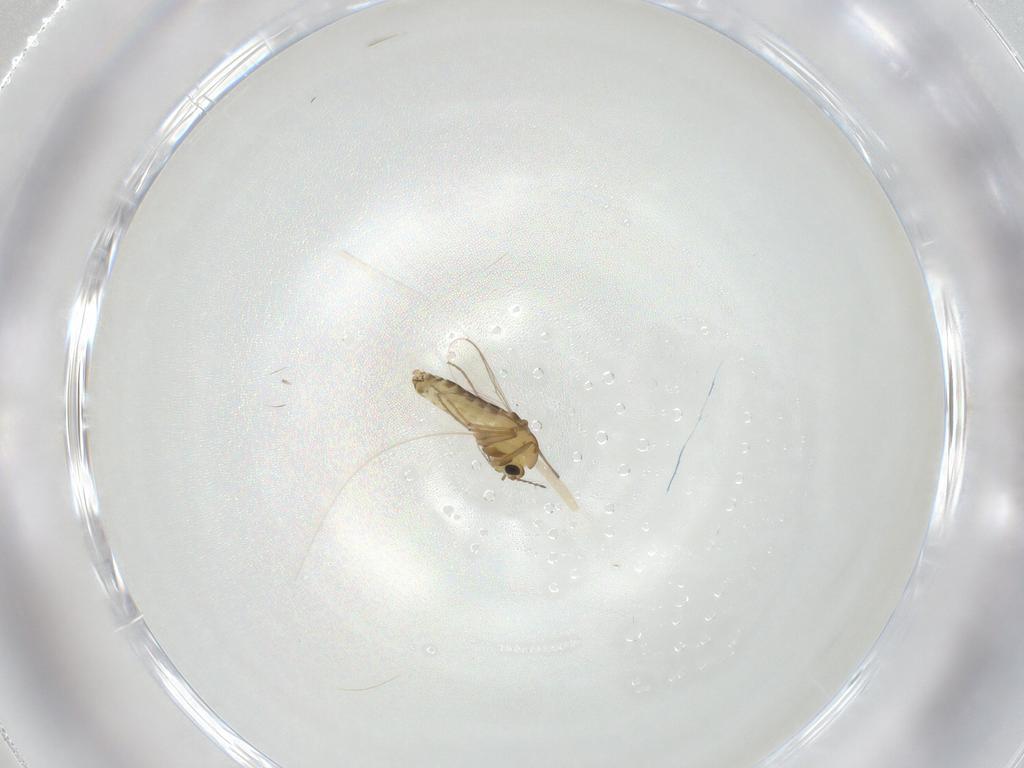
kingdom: Animalia
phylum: Arthropoda
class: Insecta
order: Diptera
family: Chironomidae
